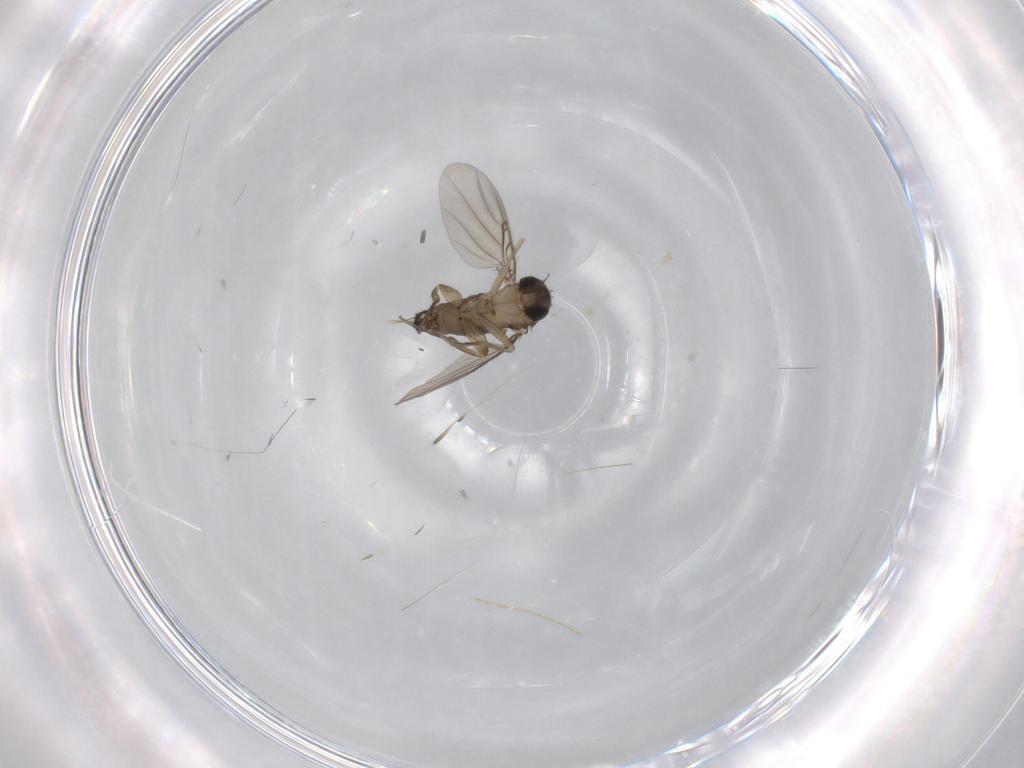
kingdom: Animalia
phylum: Arthropoda
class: Insecta
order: Diptera
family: Phoridae
